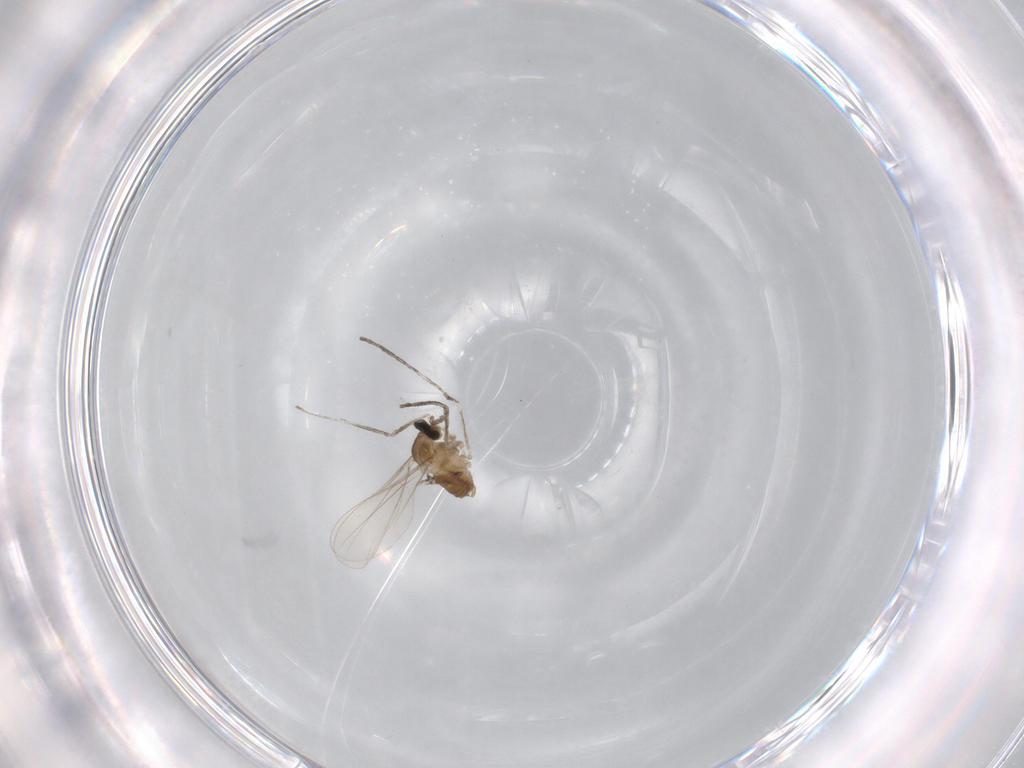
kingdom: Animalia
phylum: Arthropoda
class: Insecta
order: Diptera
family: Cecidomyiidae
